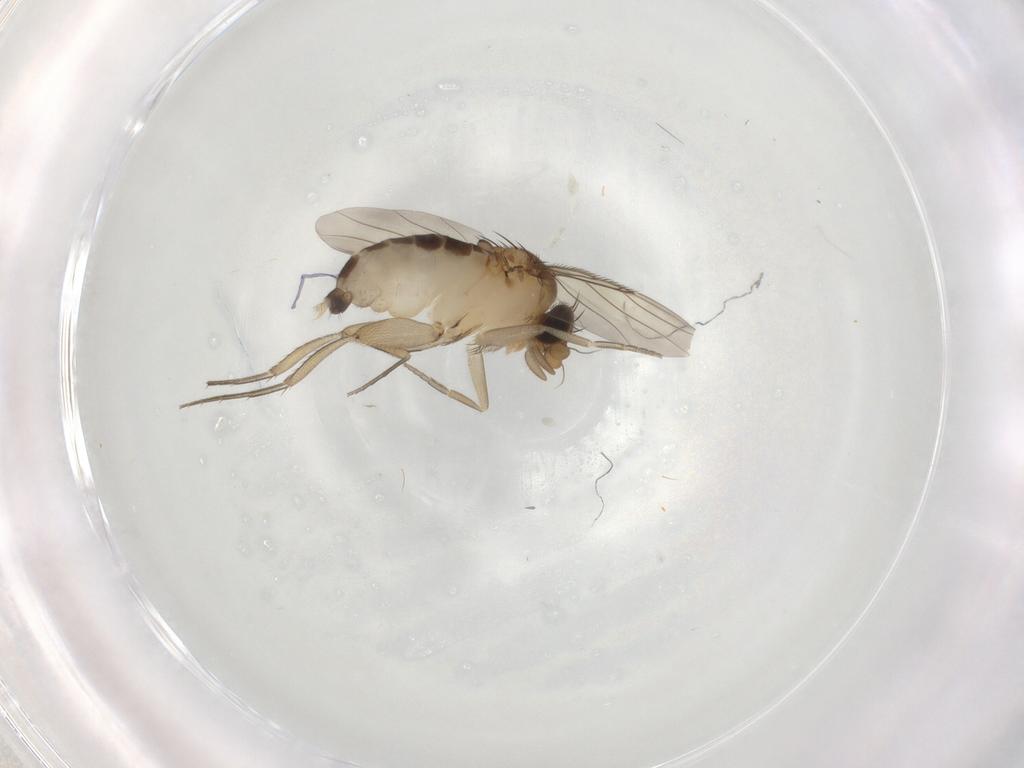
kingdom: Animalia
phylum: Arthropoda
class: Insecta
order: Diptera
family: Phoridae
